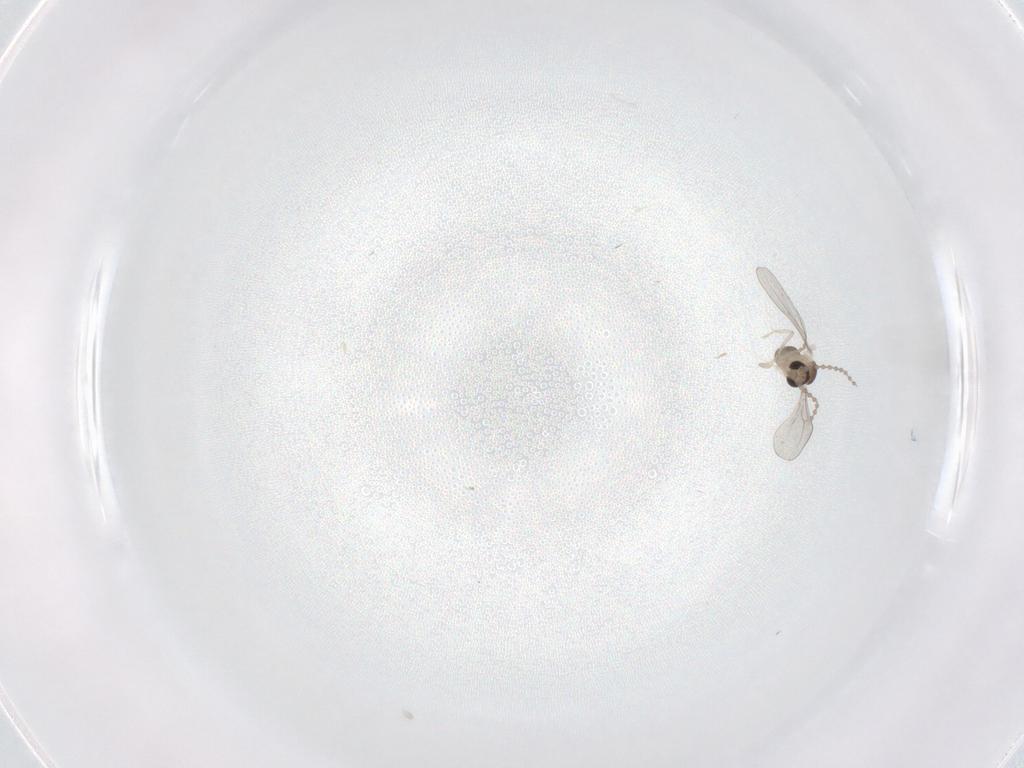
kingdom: Animalia
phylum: Arthropoda
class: Insecta
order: Diptera
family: Cecidomyiidae
